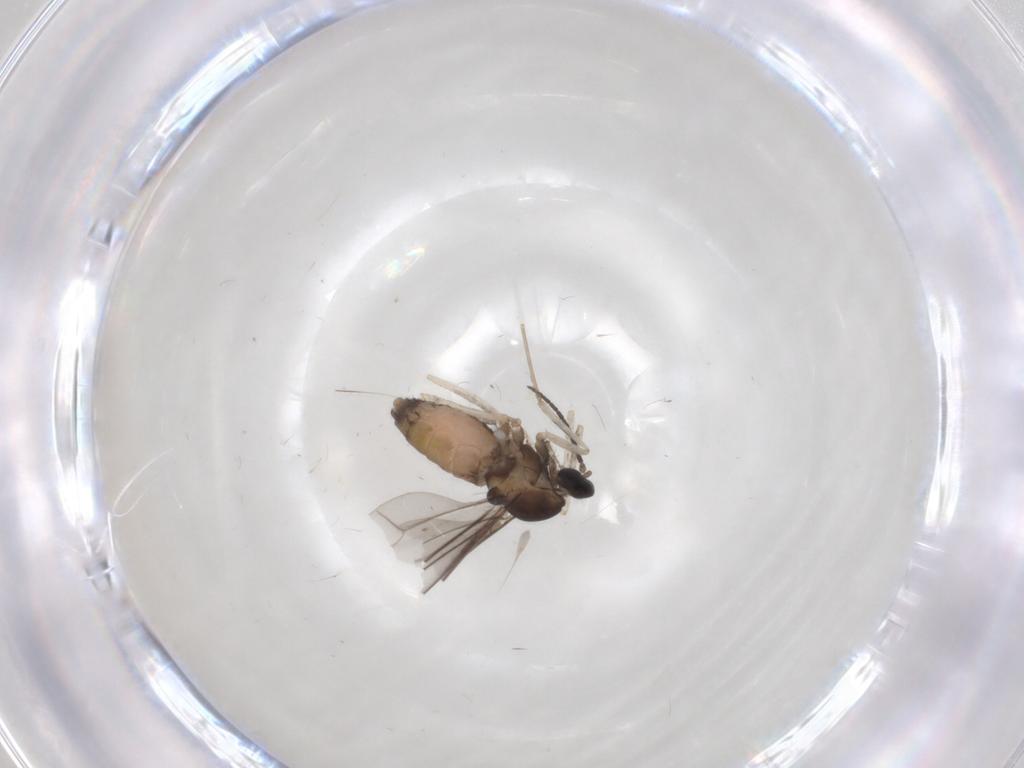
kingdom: Animalia
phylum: Arthropoda
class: Insecta
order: Diptera
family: Cecidomyiidae
